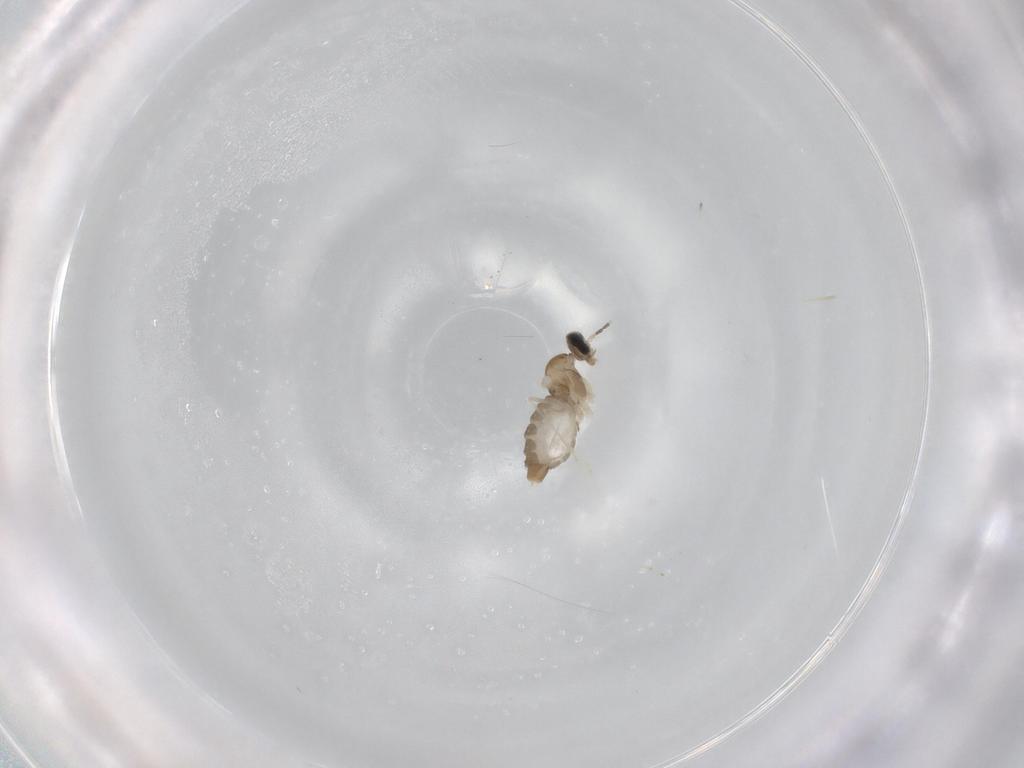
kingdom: Animalia
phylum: Arthropoda
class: Insecta
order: Diptera
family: Cecidomyiidae
